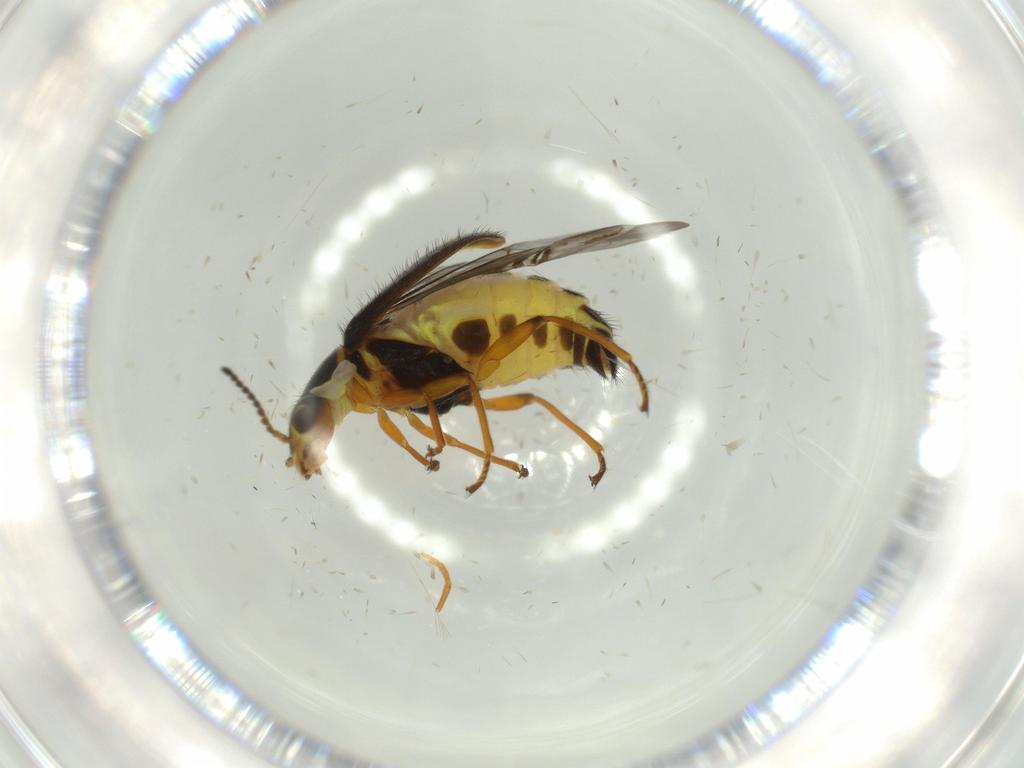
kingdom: Animalia
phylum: Arthropoda
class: Insecta
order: Coleoptera
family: Melyridae
